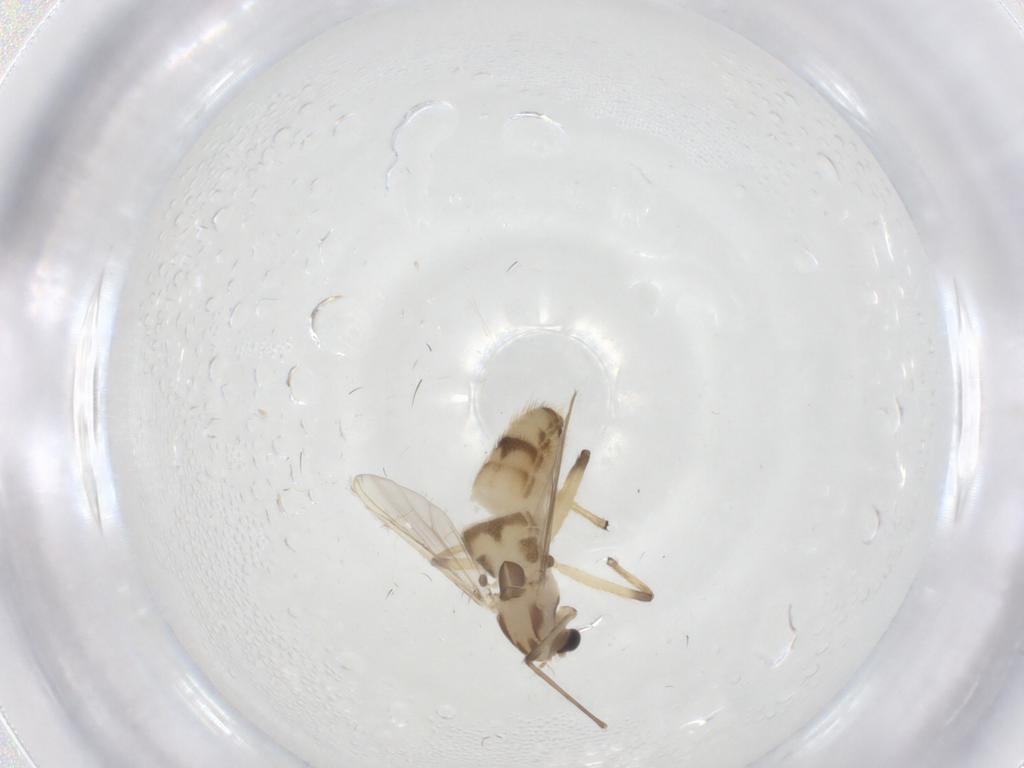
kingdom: Animalia
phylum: Arthropoda
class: Insecta
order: Diptera
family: Chironomidae
